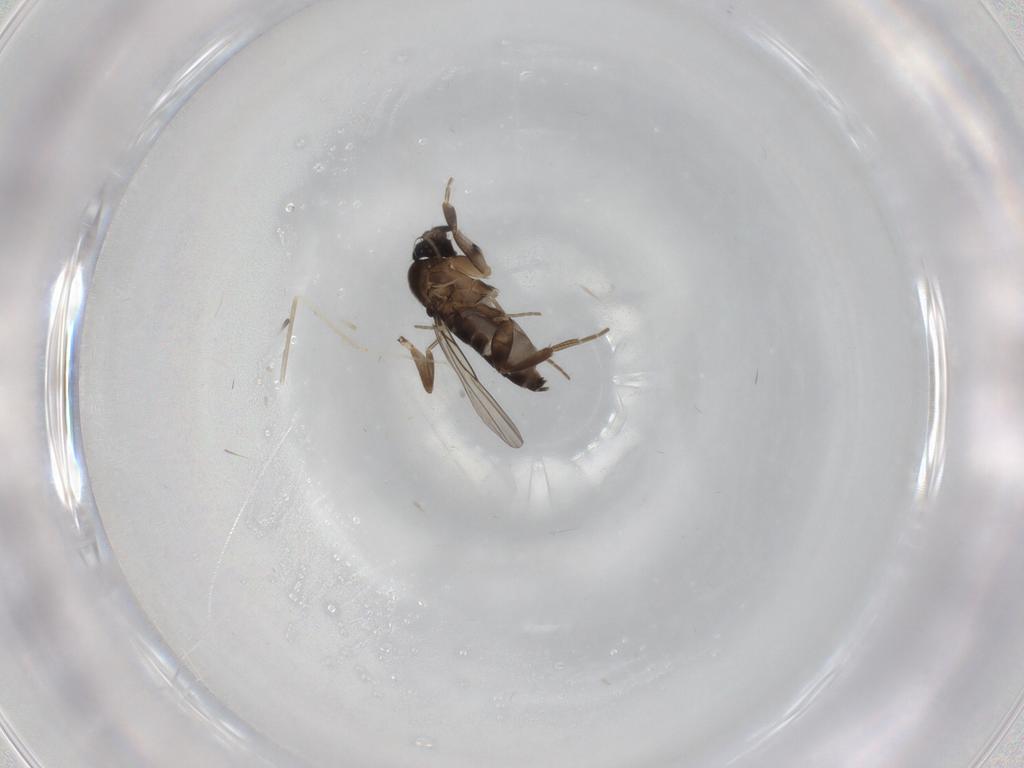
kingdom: Animalia
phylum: Arthropoda
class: Insecta
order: Diptera
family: Phoridae
